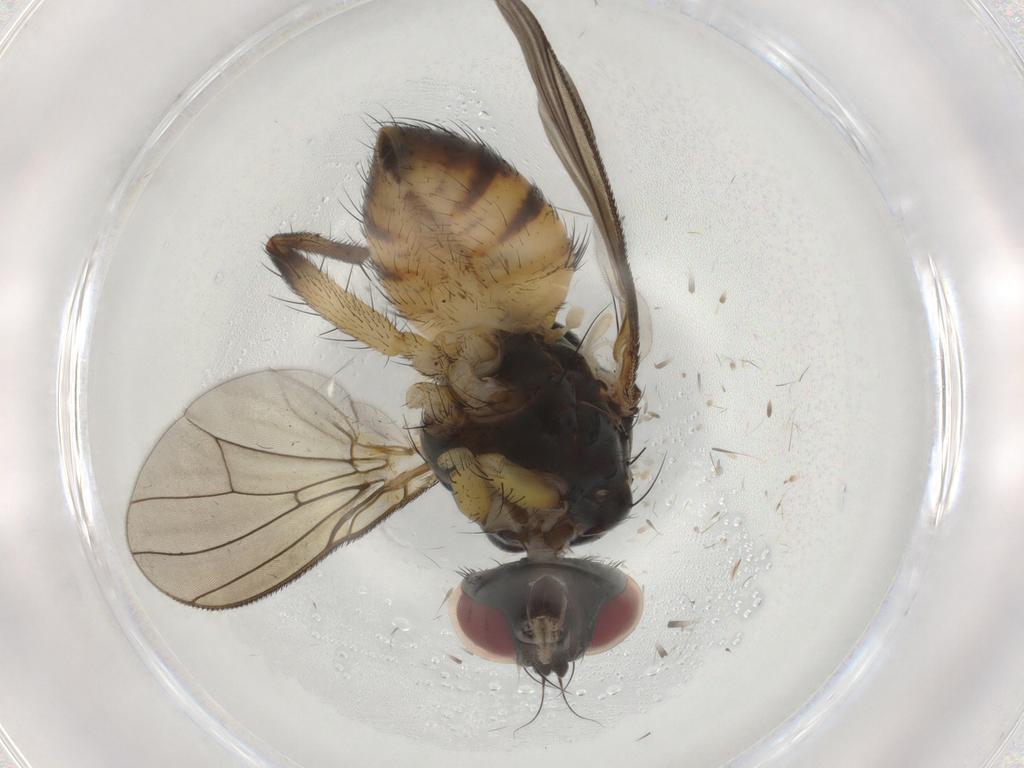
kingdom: Animalia
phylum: Arthropoda
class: Insecta
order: Diptera
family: Muscidae
